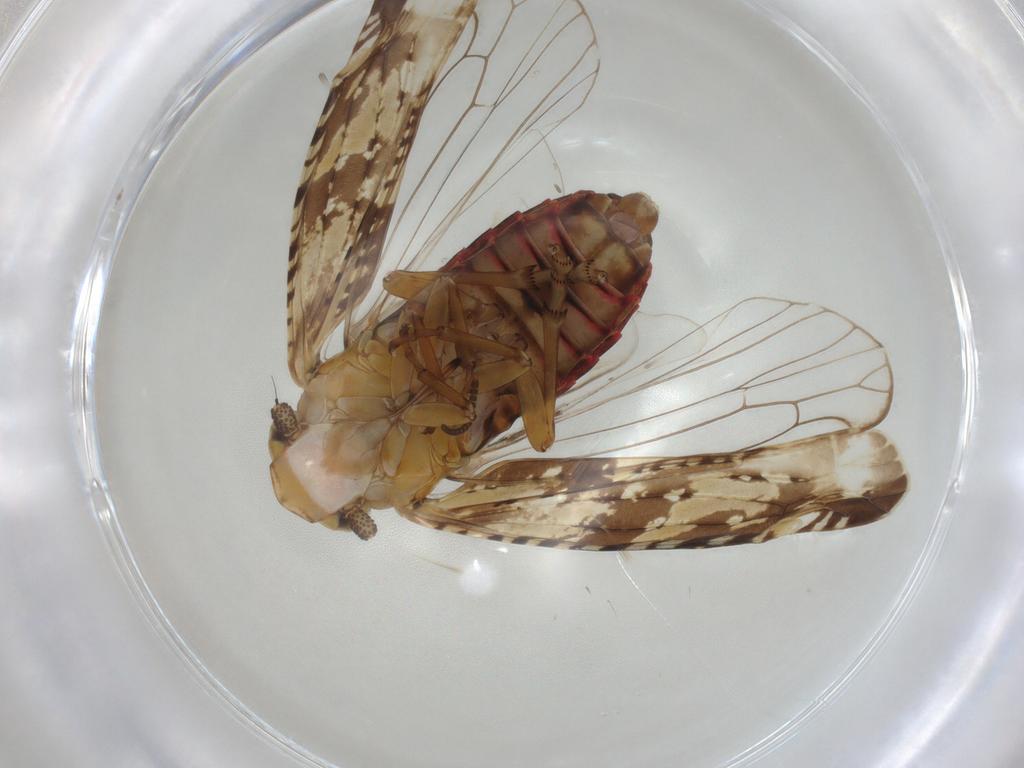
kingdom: Animalia
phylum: Arthropoda
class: Insecta
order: Hemiptera
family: Achilidae
